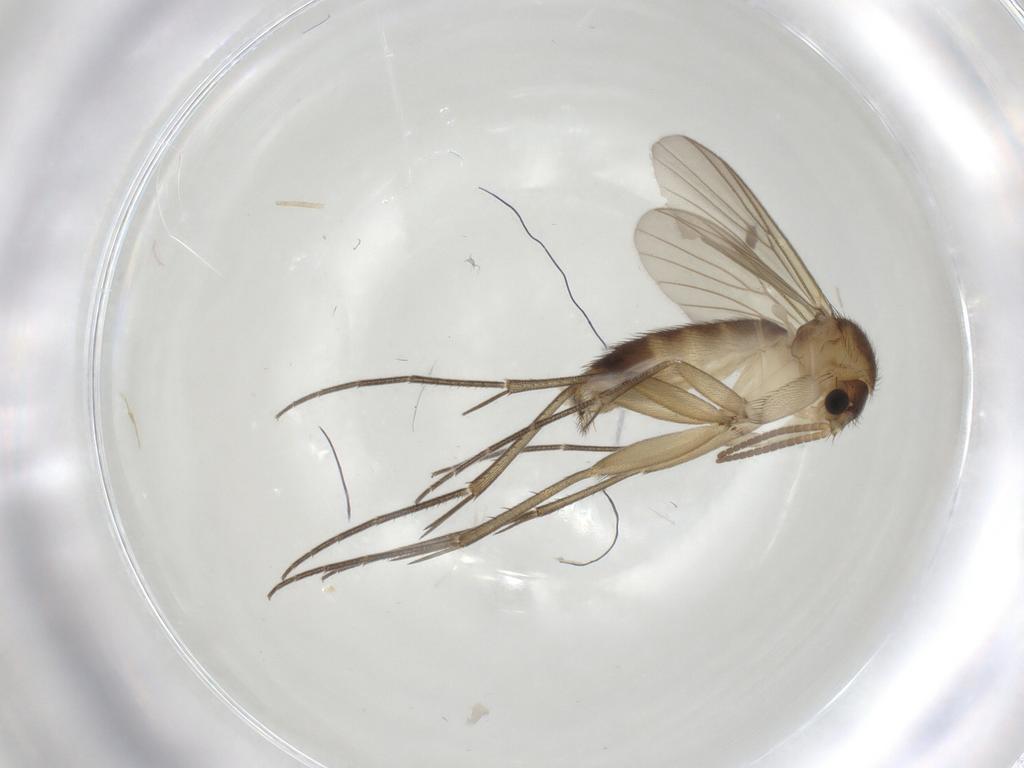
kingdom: Animalia
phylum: Arthropoda
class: Insecta
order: Diptera
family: Mycetophilidae
